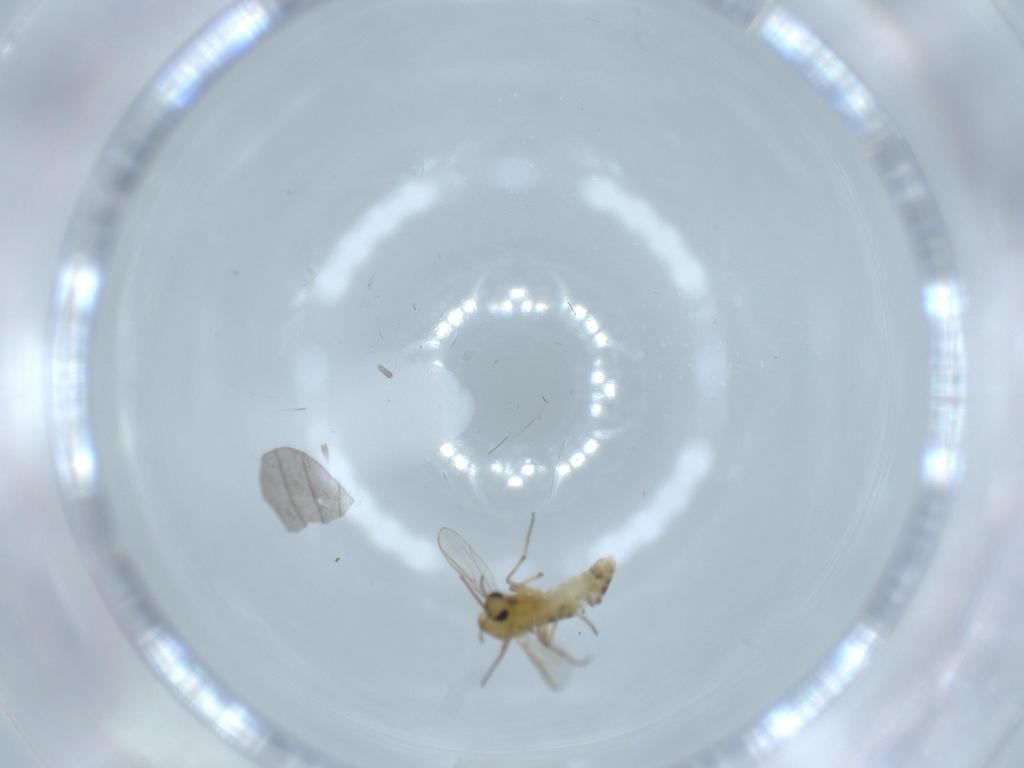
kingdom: Animalia
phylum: Arthropoda
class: Insecta
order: Diptera
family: Chironomidae
